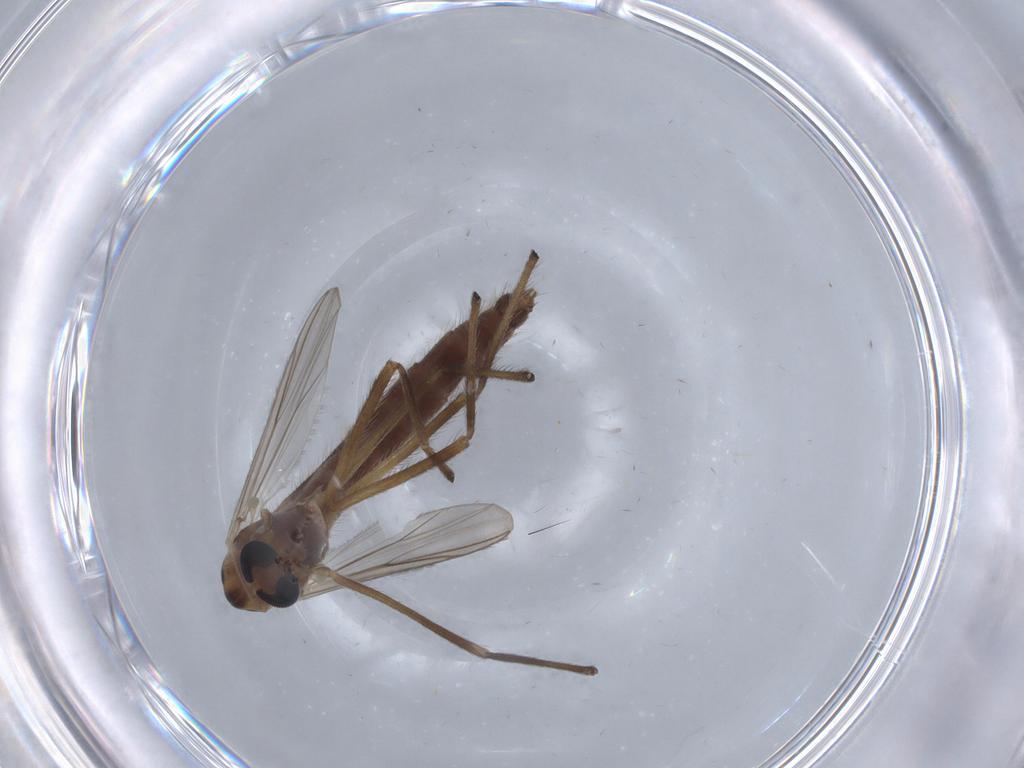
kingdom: Animalia
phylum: Arthropoda
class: Insecta
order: Diptera
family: Chironomidae
